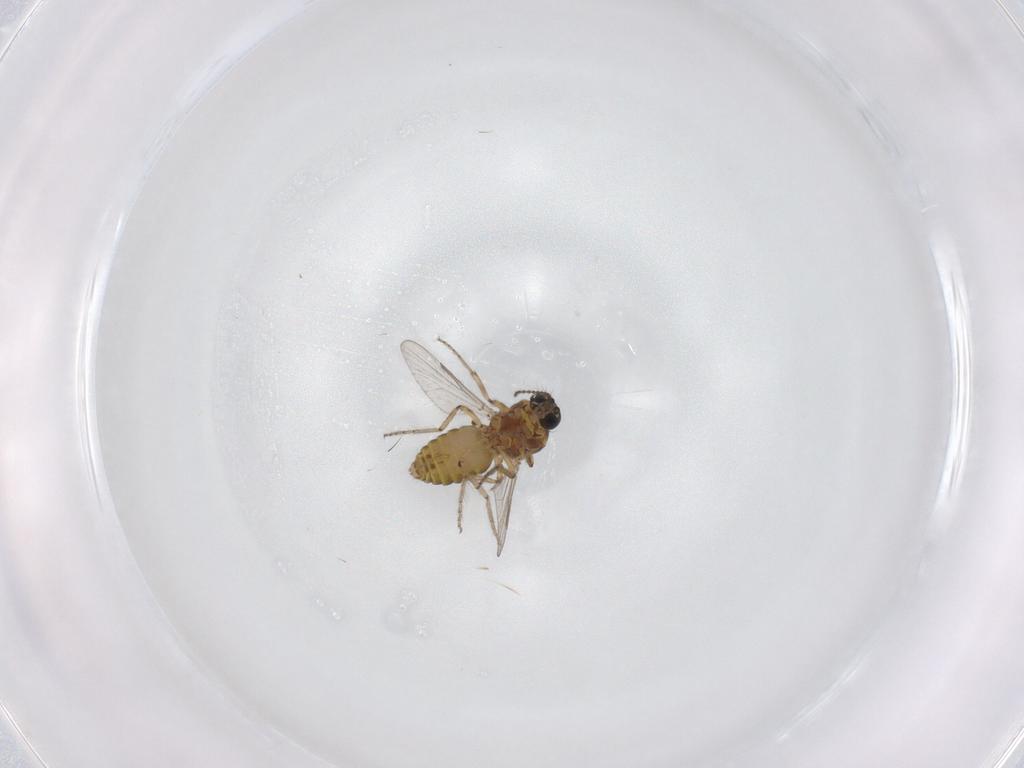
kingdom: Animalia
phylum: Arthropoda
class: Insecta
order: Diptera
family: Ceratopogonidae
